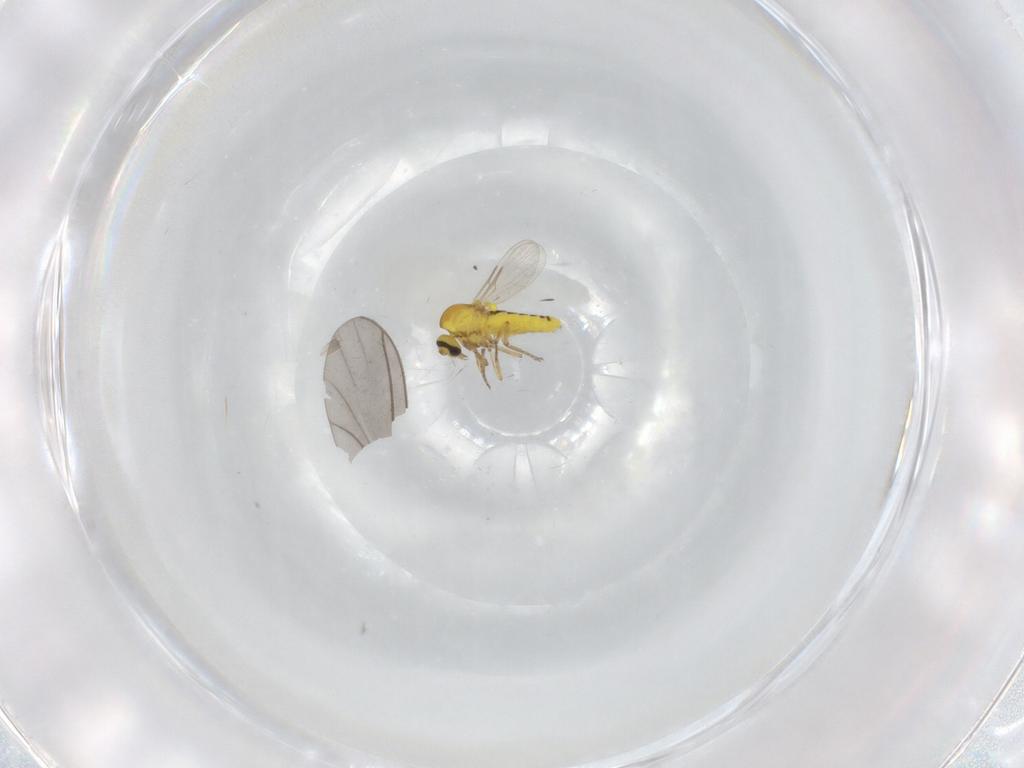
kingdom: Animalia
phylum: Arthropoda
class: Insecta
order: Diptera
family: Ceratopogonidae
